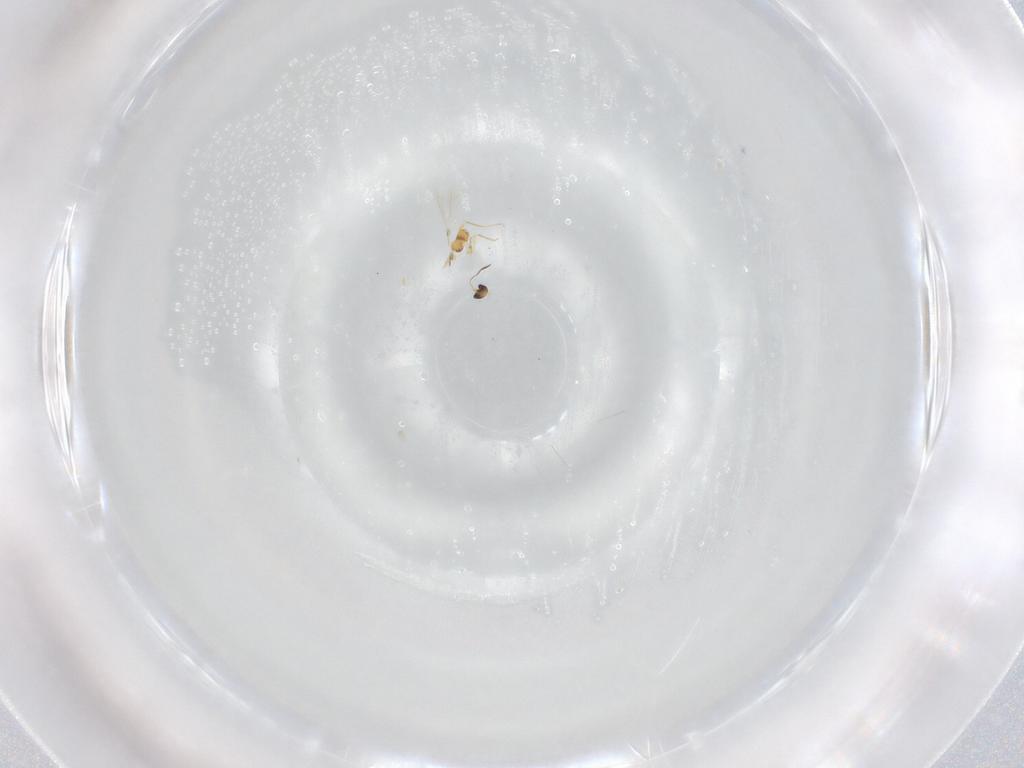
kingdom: Animalia
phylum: Arthropoda
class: Insecta
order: Hymenoptera
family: Mymaridae
